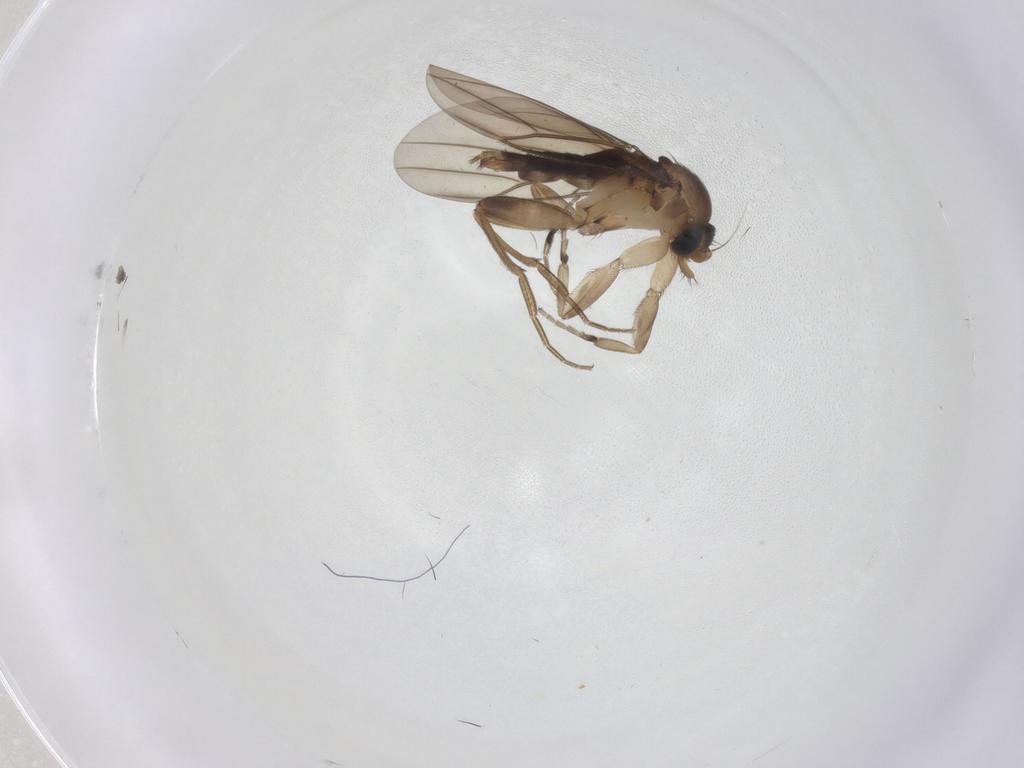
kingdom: Animalia
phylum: Arthropoda
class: Insecta
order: Diptera
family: Phoridae
